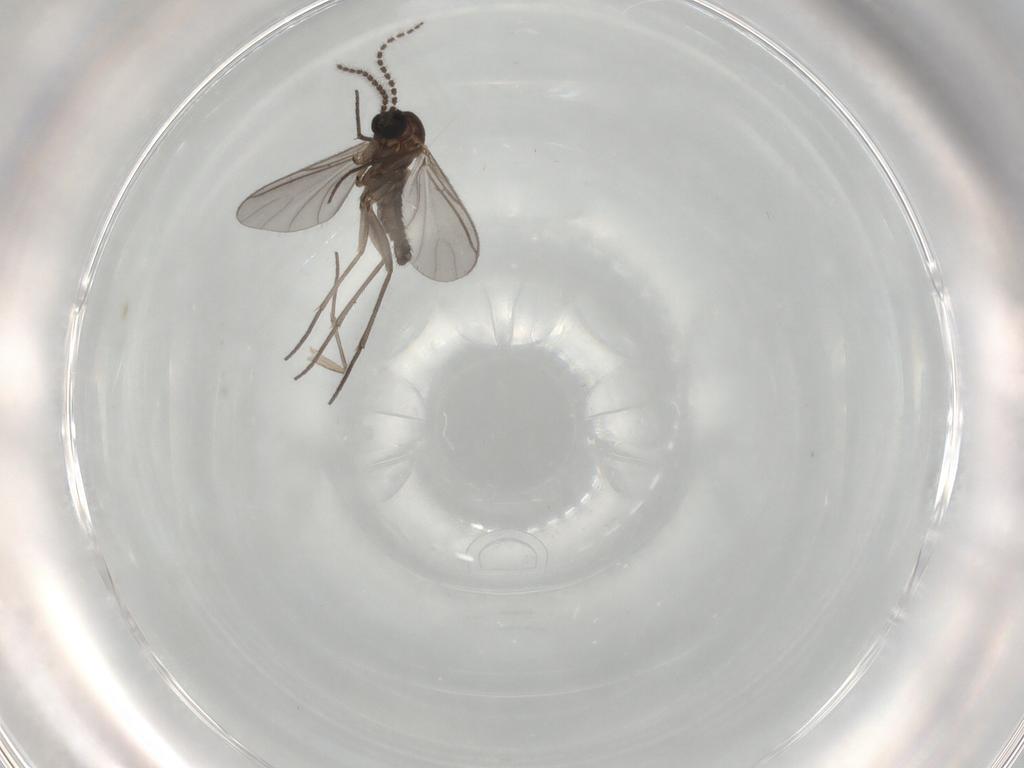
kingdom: Animalia
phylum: Arthropoda
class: Insecta
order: Diptera
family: Sciaridae
